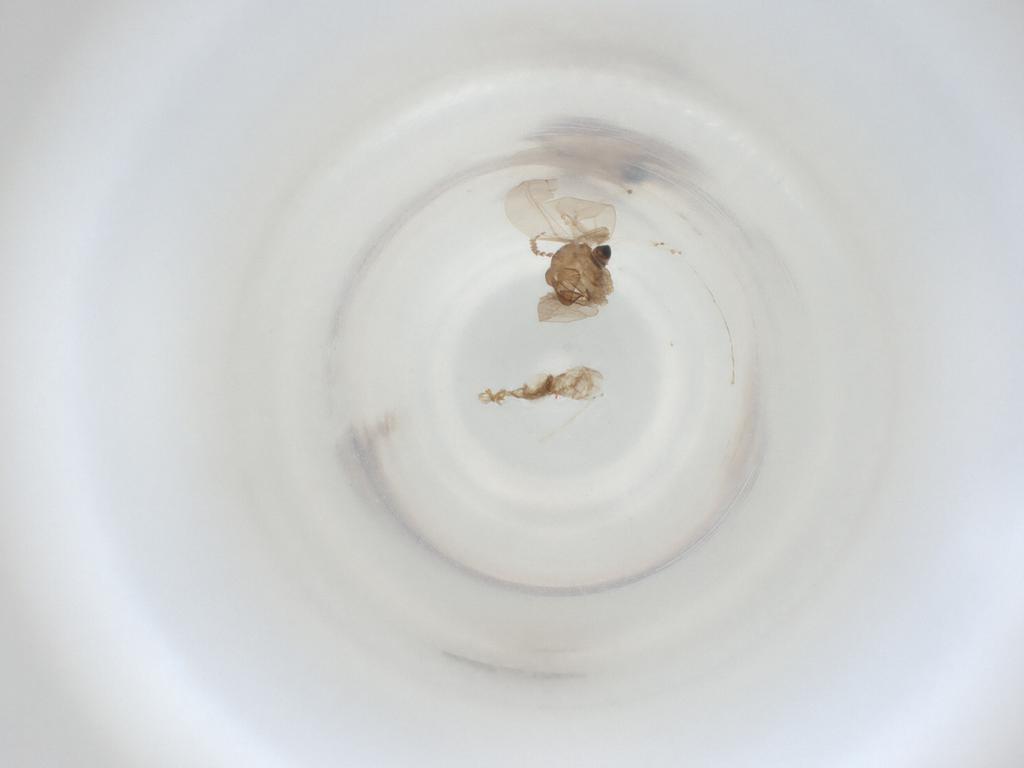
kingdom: Animalia
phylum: Arthropoda
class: Insecta
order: Diptera
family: Cecidomyiidae
